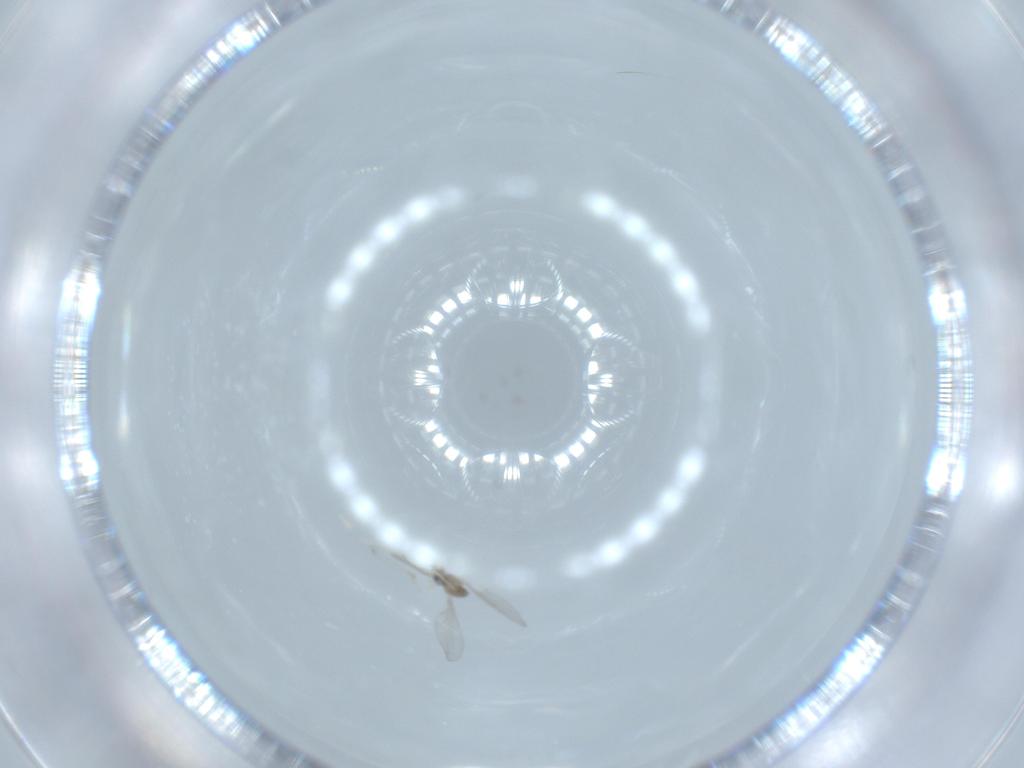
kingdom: Animalia
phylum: Arthropoda
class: Insecta
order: Diptera
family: Cecidomyiidae
